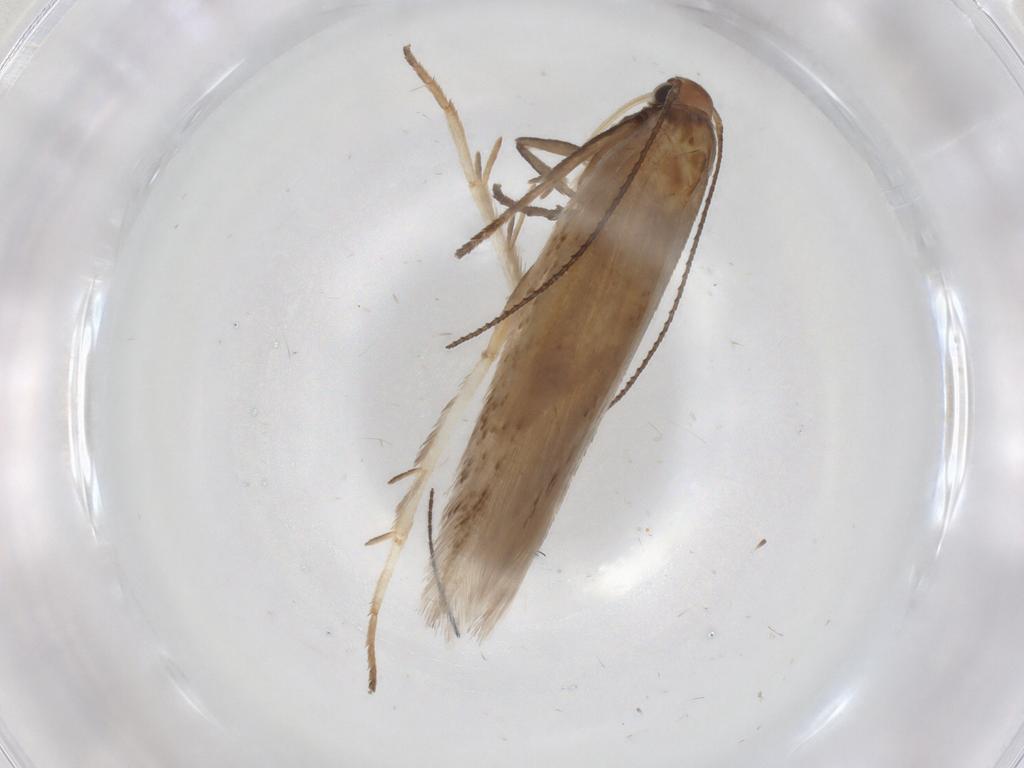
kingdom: Animalia
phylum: Arthropoda
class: Insecta
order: Lepidoptera
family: Gelechiidae
